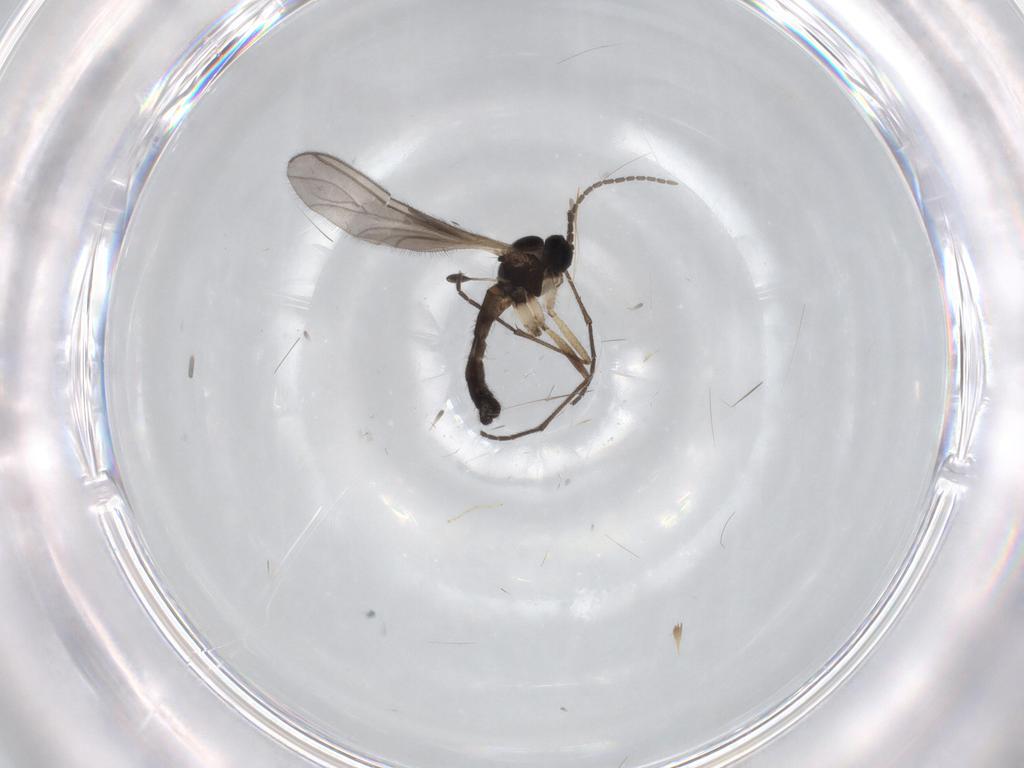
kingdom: Animalia
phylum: Arthropoda
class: Insecta
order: Diptera
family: Sciaridae
